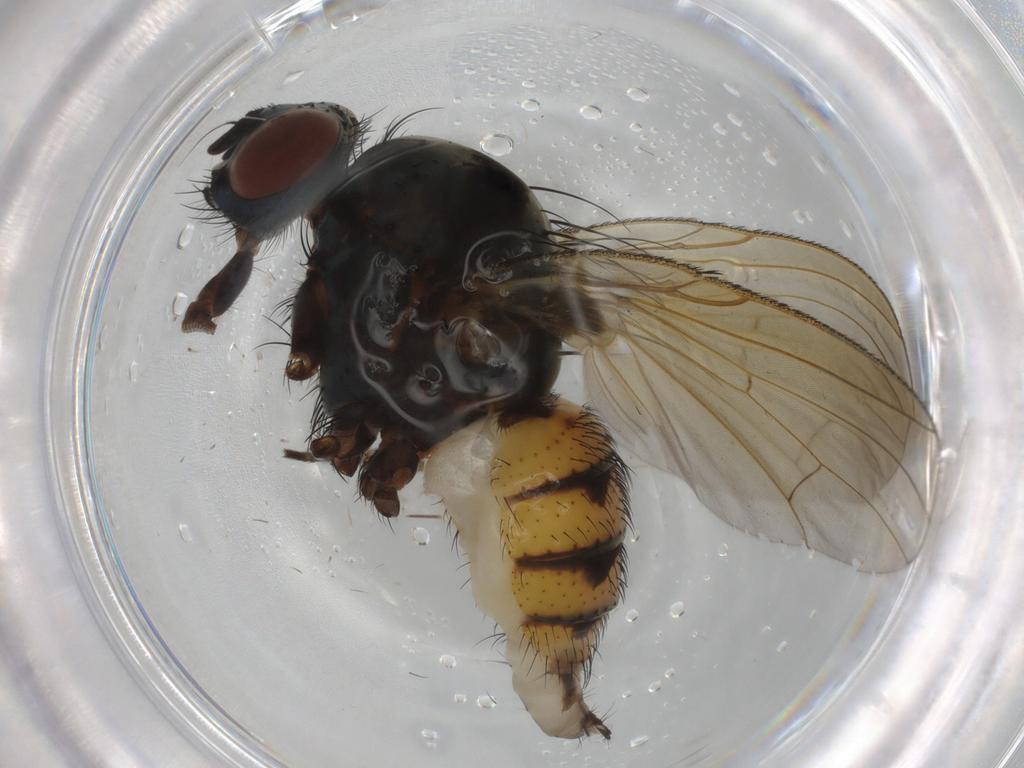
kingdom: Animalia
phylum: Arthropoda
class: Insecta
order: Diptera
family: Anthomyiidae
